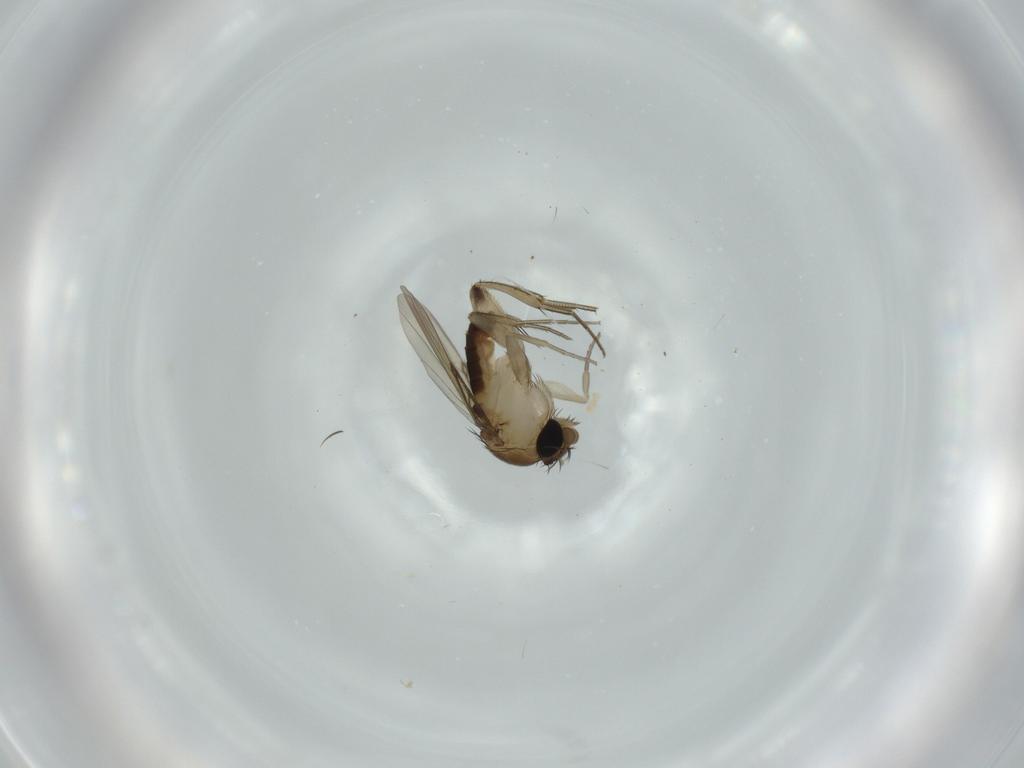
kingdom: Animalia
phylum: Arthropoda
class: Insecta
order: Diptera
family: Phoridae
